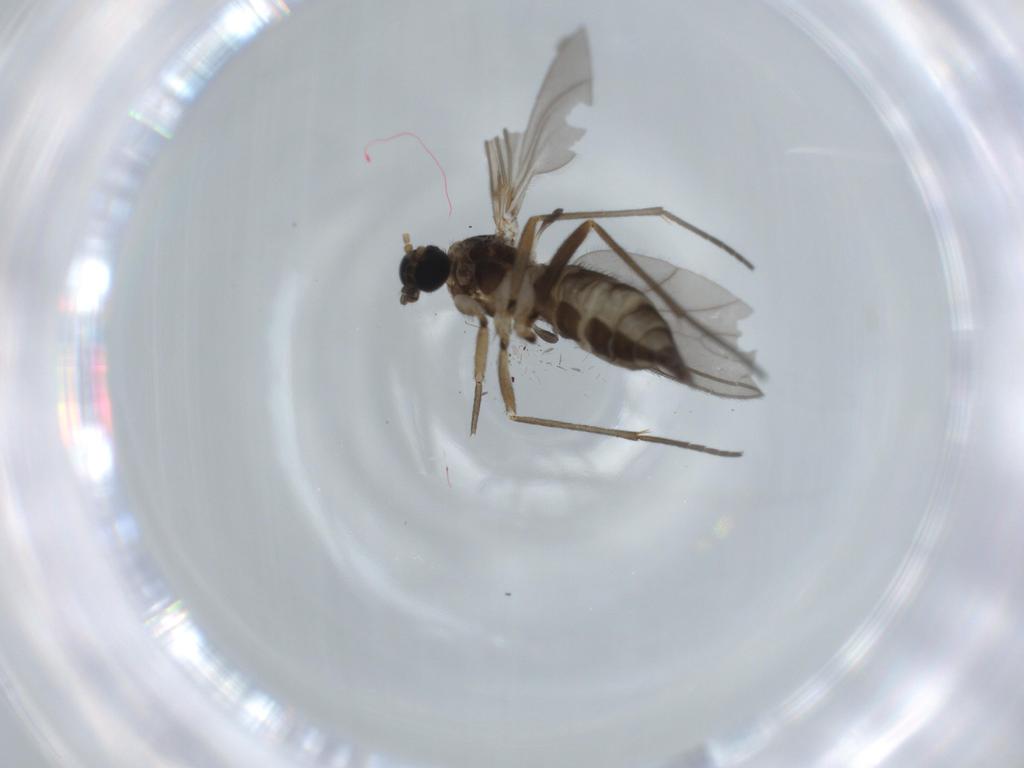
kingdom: Animalia
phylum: Arthropoda
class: Insecta
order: Diptera
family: Sciaridae
